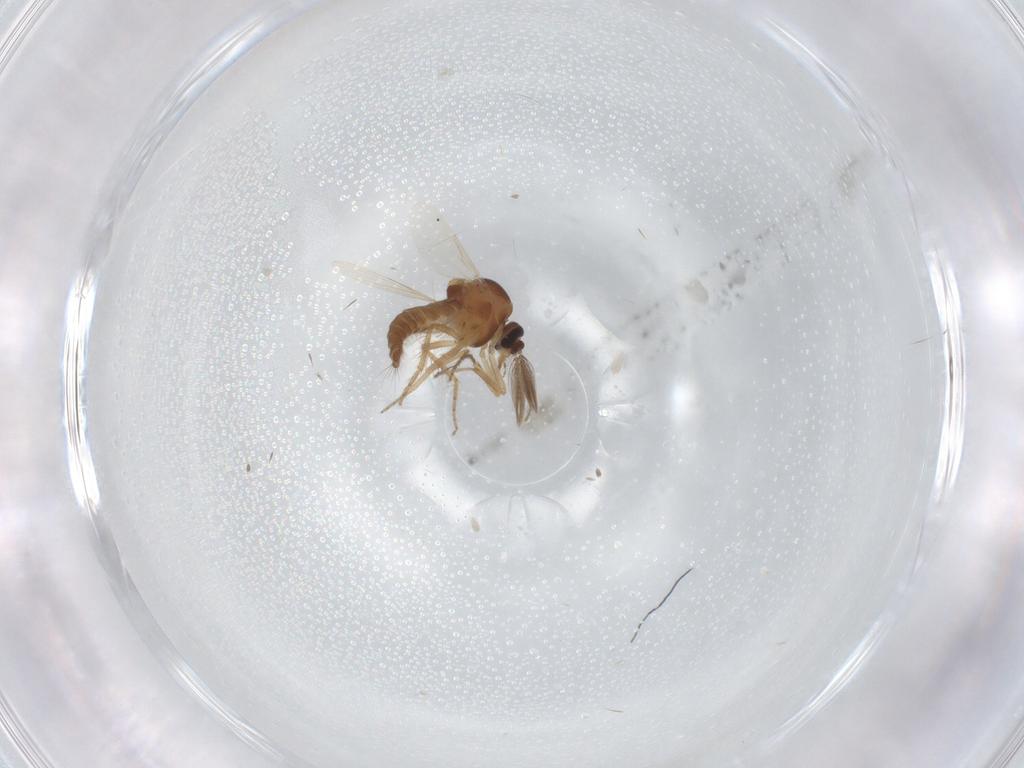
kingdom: Animalia
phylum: Arthropoda
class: Insecta
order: Diptera
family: Ceratopogonidae
